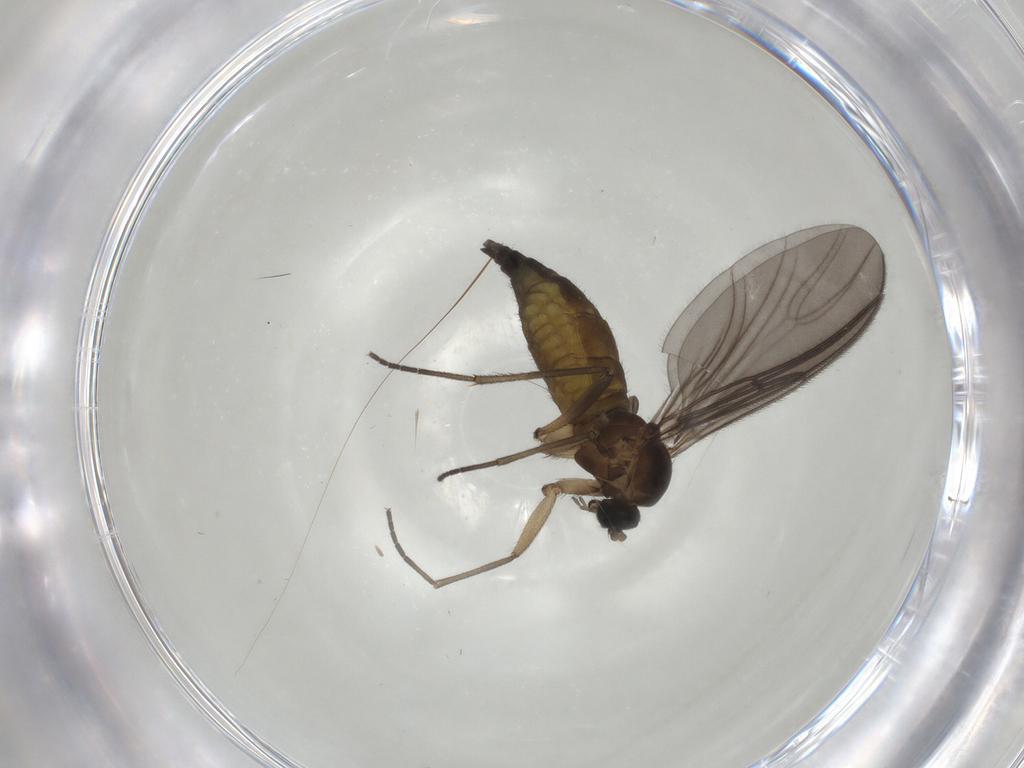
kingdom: Animalia
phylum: Arthropoda
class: Insecta
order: Diptera
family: Sciaridae
